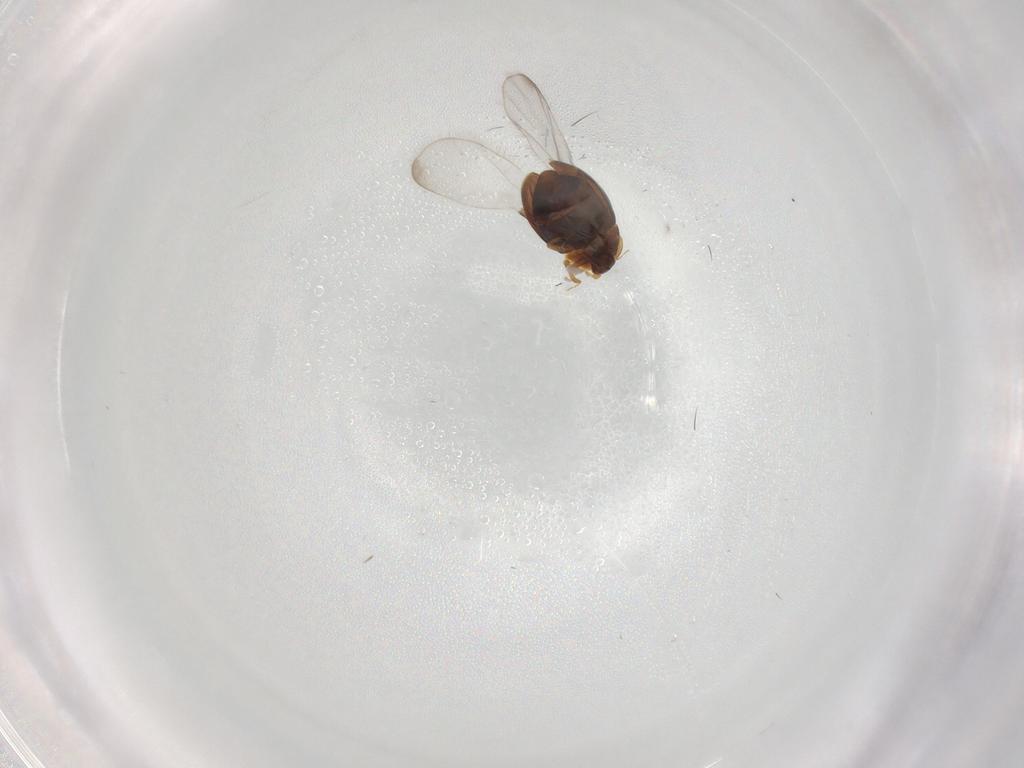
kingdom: Animalia
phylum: Arthropoda
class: Insecta
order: Coleoptera
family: Corylophidae
